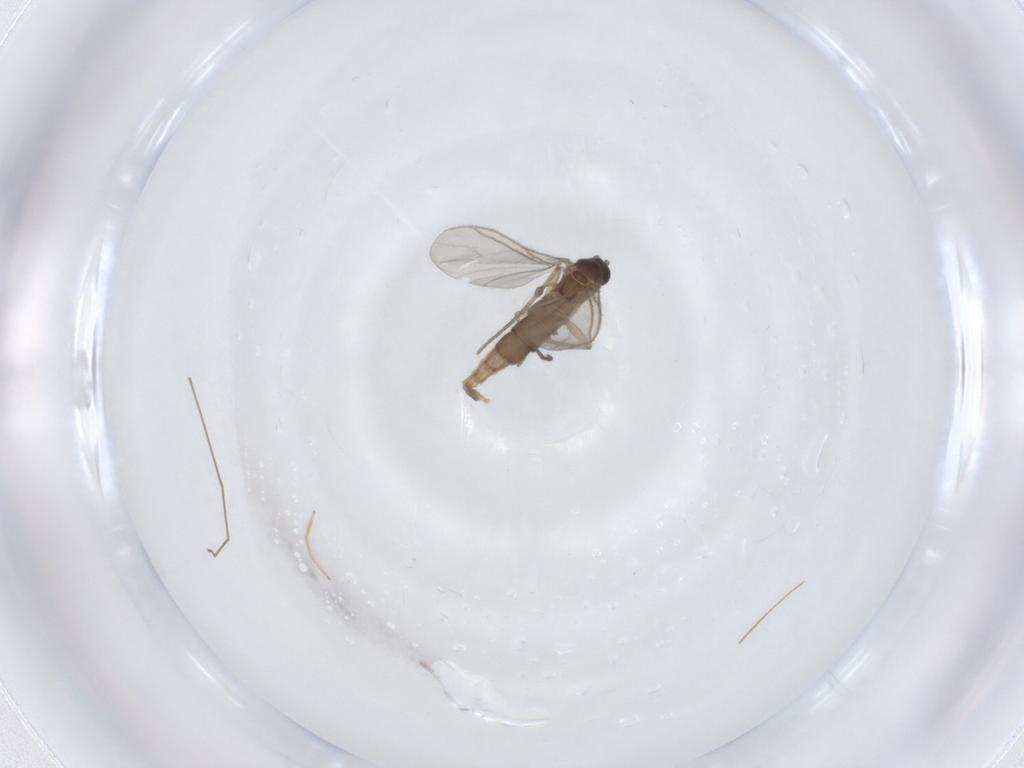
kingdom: Animalia
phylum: Arthropoda
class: Insecta
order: Diptera
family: Sciaridae
